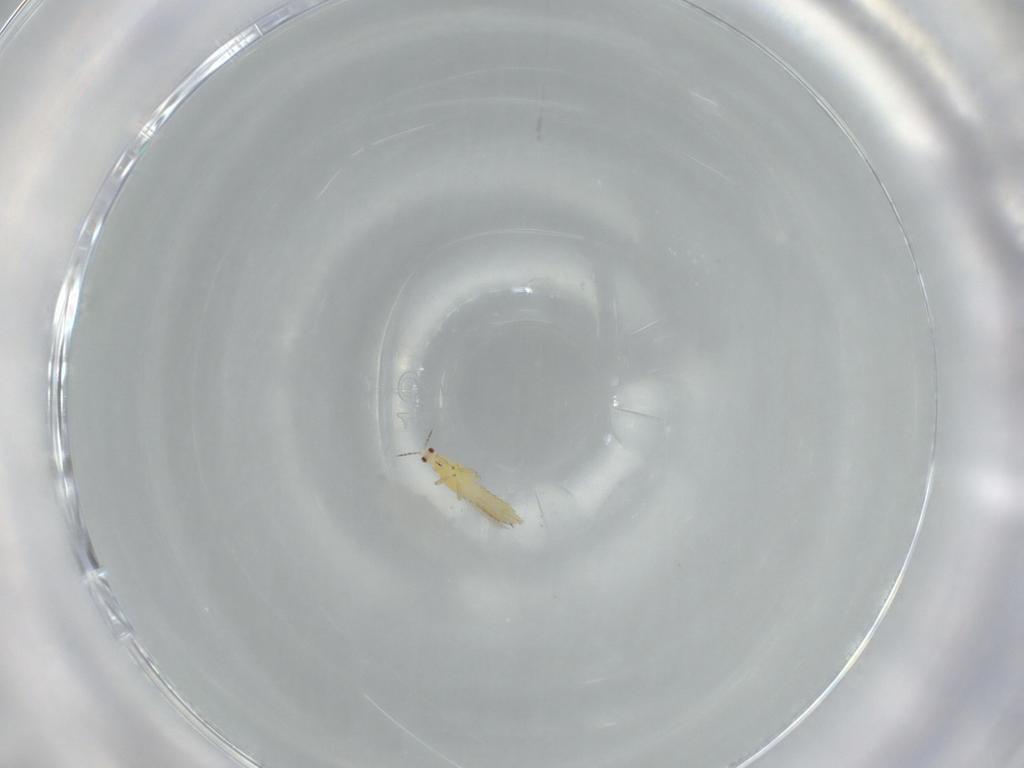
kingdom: Animalia
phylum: Arthropoda
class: Insecta
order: Thysanoptera
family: Thripidae
